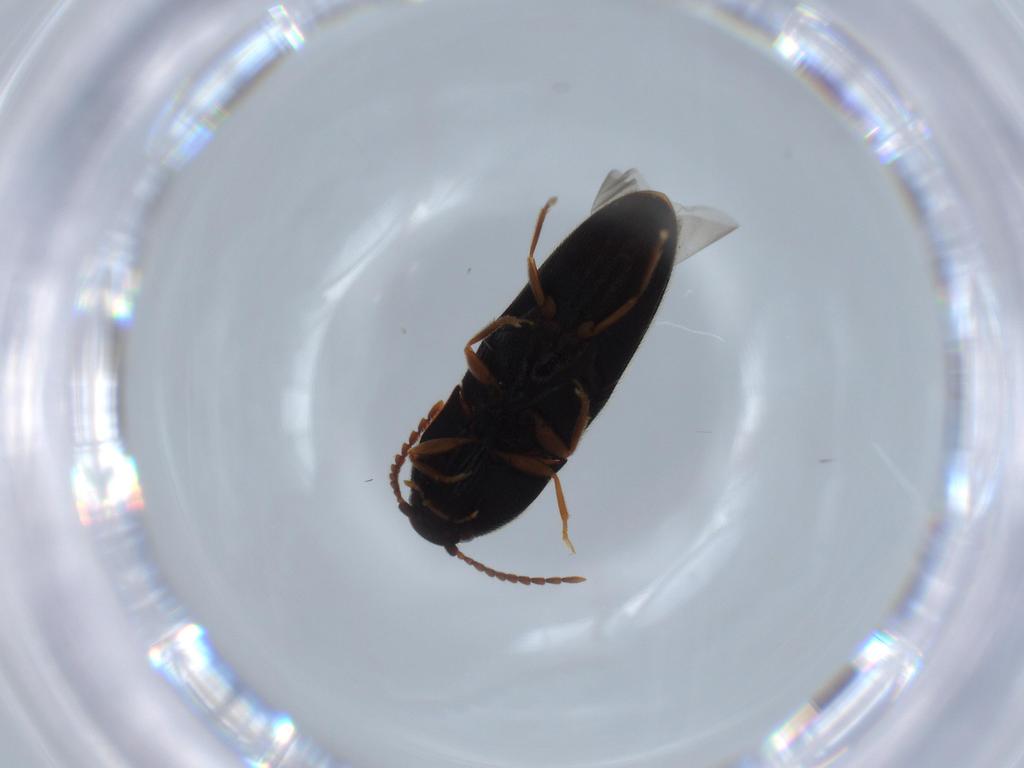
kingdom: Animalia
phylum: Arthropoda
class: Insecta
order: Coleoptera
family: Elateridae
